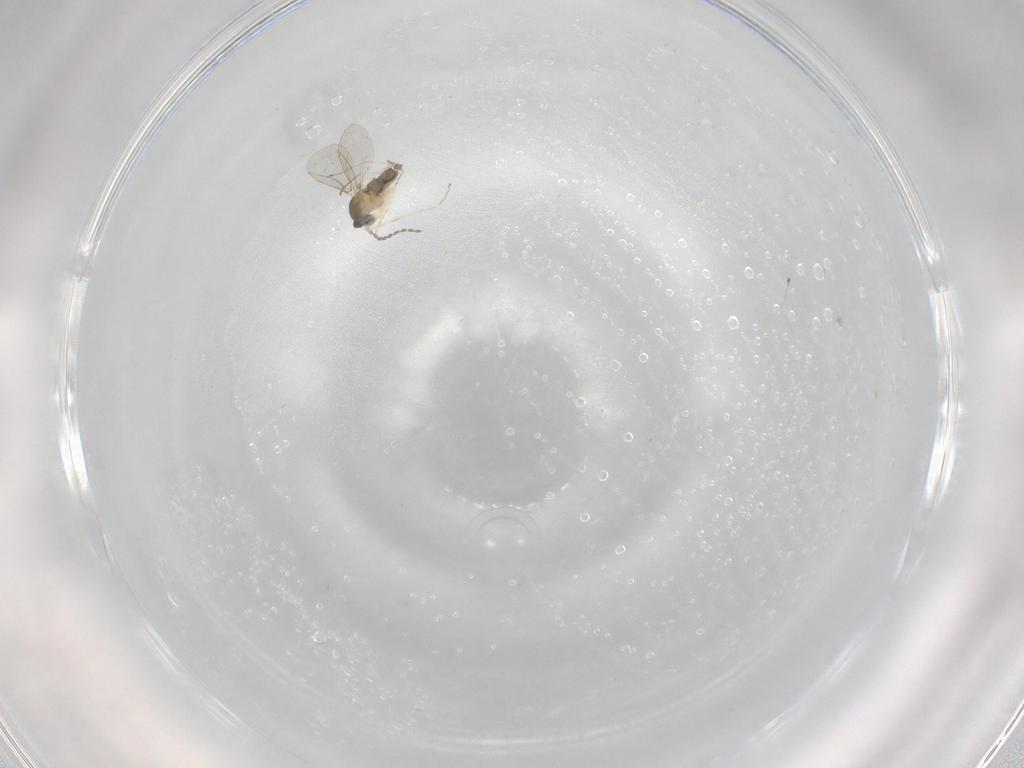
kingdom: Animalia
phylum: Arthropoda
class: Insecta
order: Diptera
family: Cecidomyiidae
